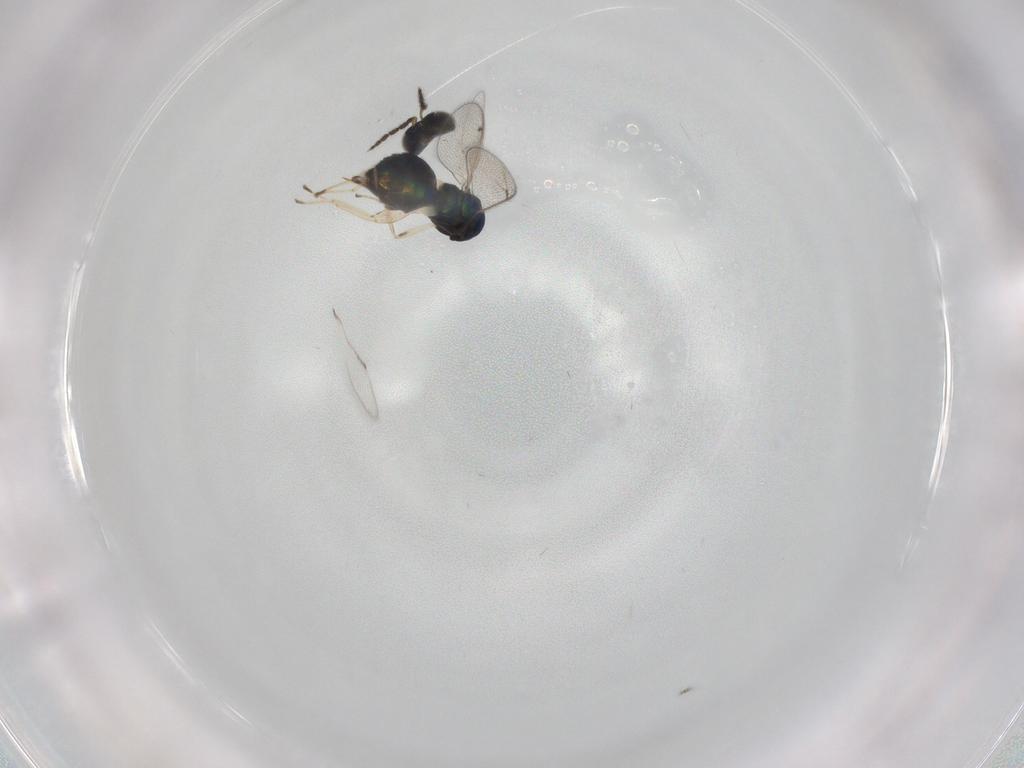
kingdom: Animalia
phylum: Arthropoda
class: Insecta
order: Hymenoptera
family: Eulophidae
